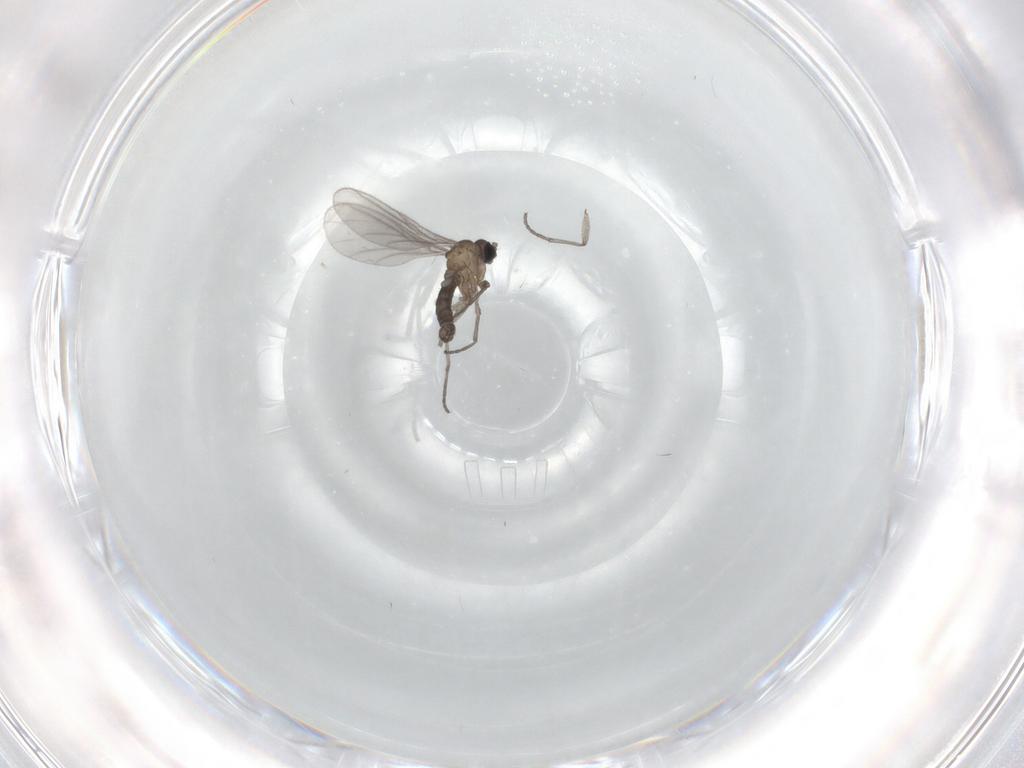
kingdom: Animalia
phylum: Arthropoda
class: Insecta
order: Diptera
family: Sciaridae
